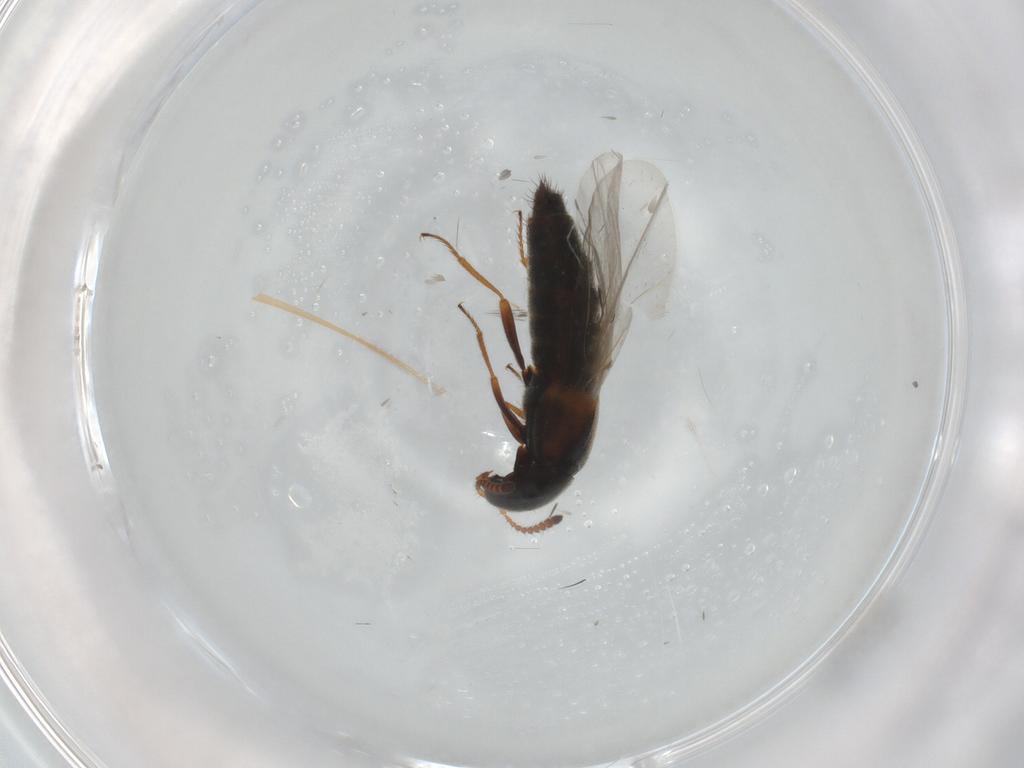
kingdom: Animalia
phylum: Arthropoda
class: Insecta
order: Coleoptera
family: Staphylinidae
